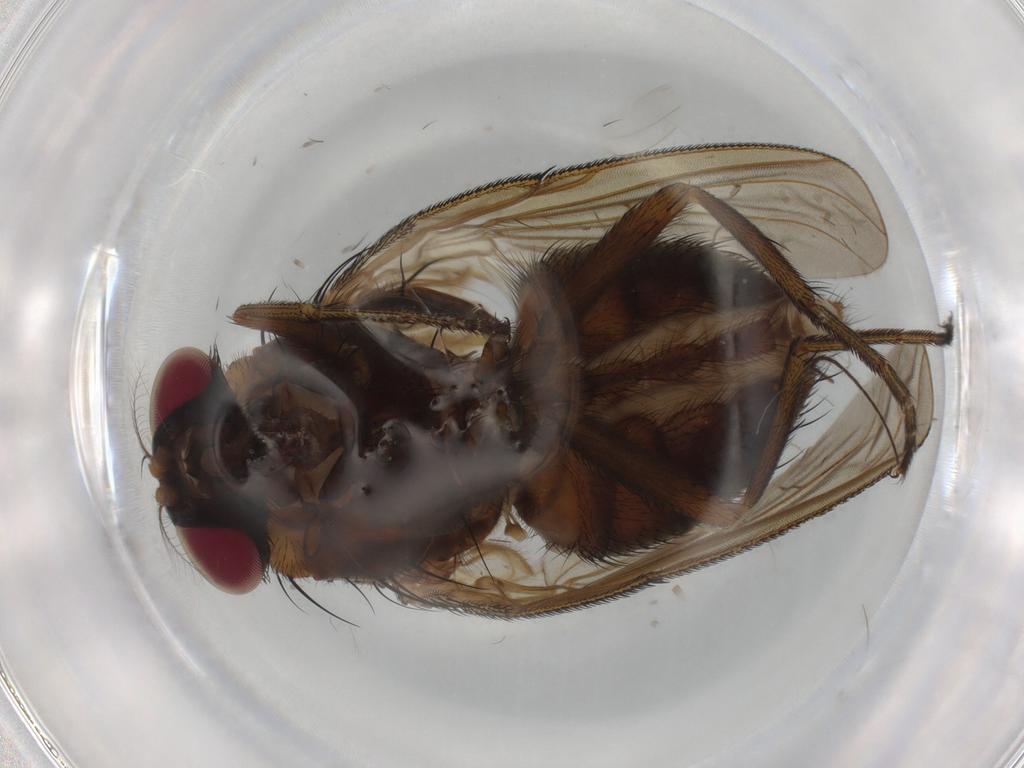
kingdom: Animalia
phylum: Arthropoda
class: Insecta
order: Diptera
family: Muscidae
